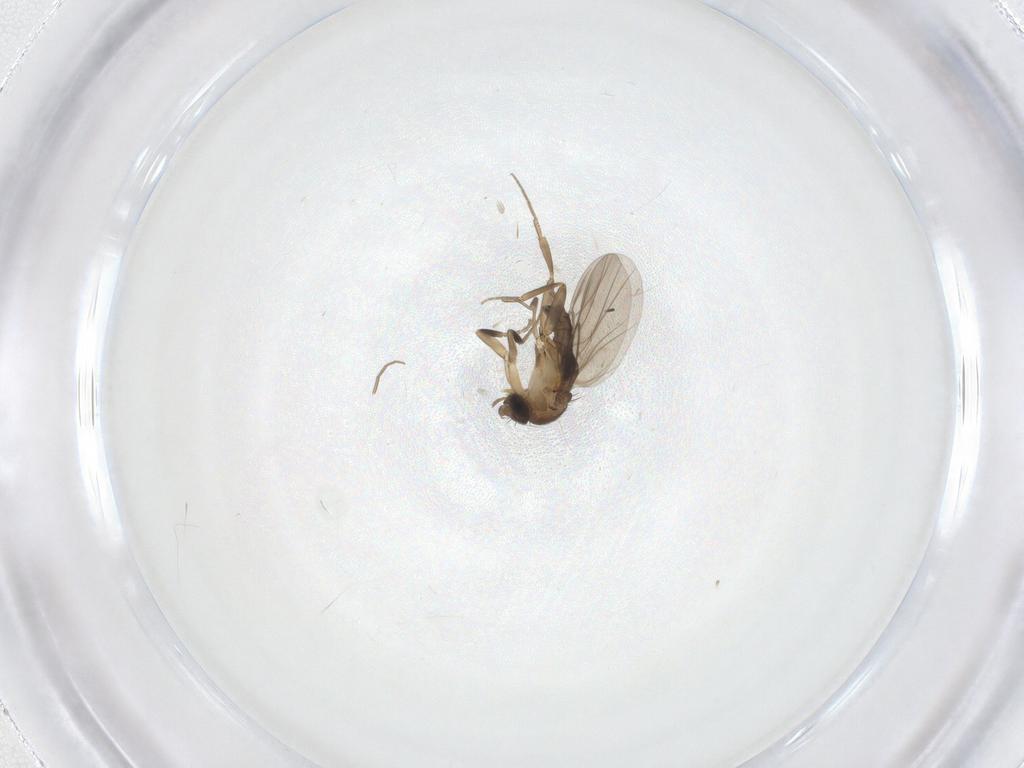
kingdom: Animalia
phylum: Arthropoda
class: Insecta
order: Diptera
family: Phoridae
